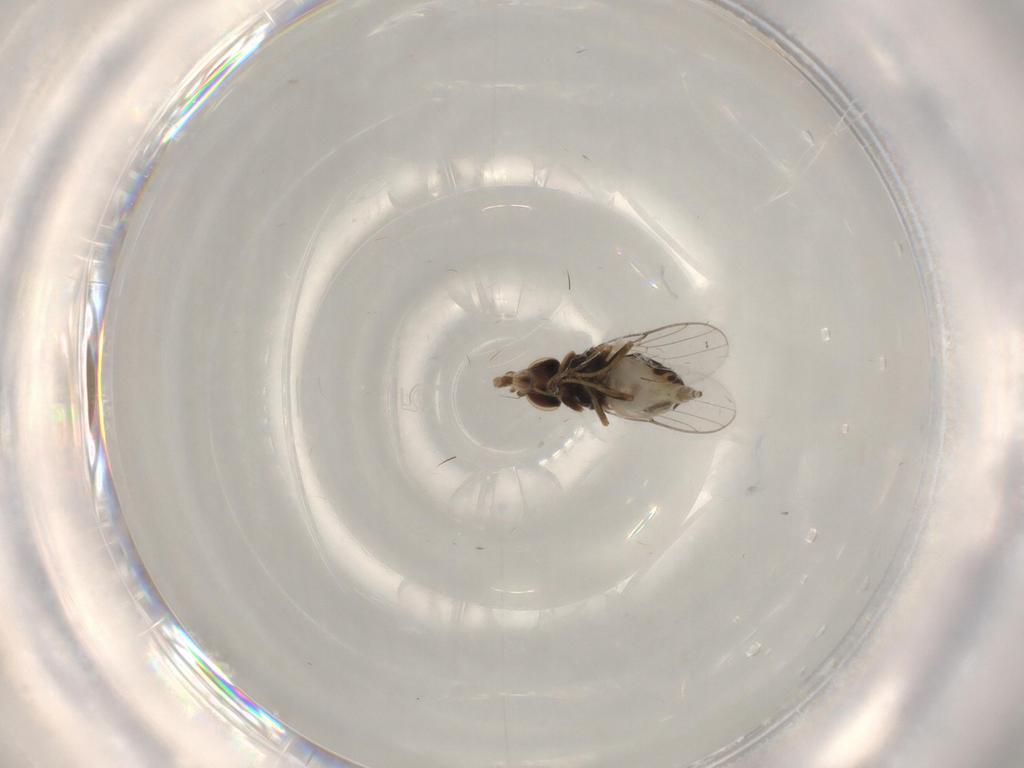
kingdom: Animalia
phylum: Arthropoda
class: Insecta
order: Diptera
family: Chloropidae
